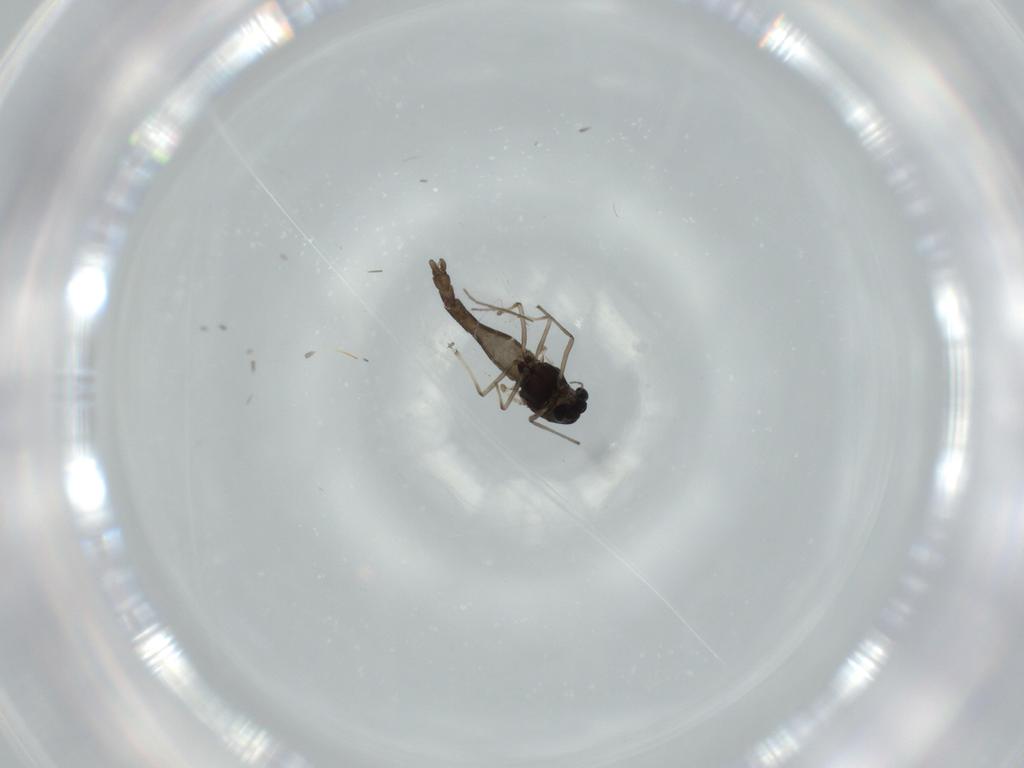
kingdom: Animalia
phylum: Arthropoda
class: Insecta
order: Diptera
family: Chironomidae
